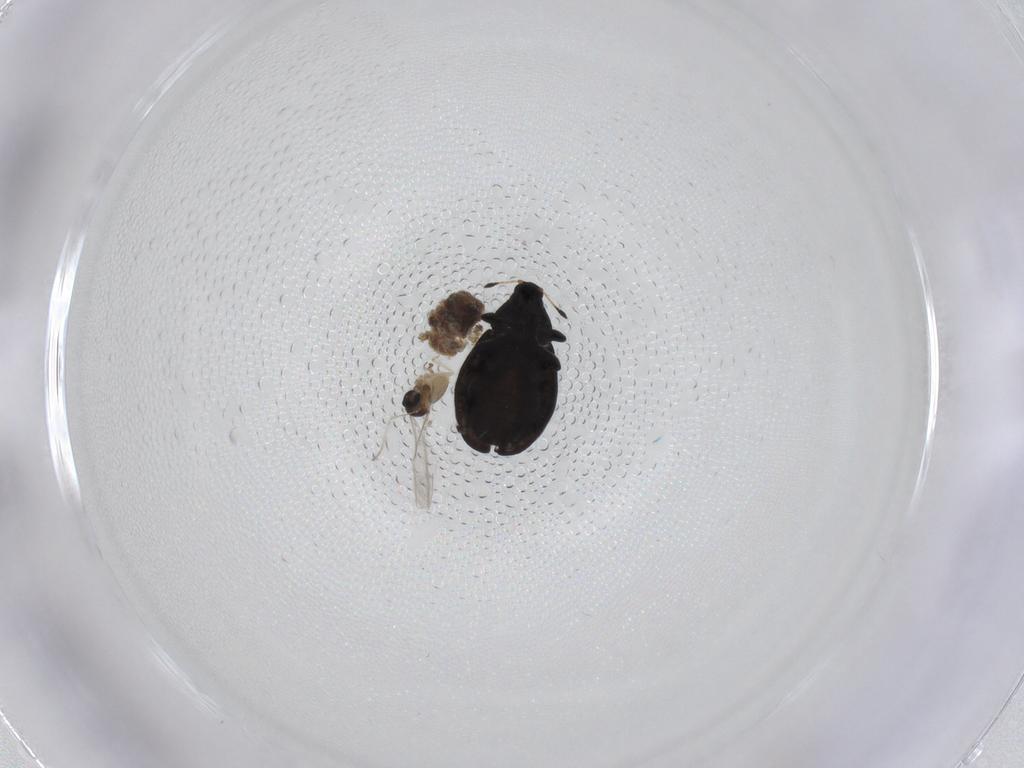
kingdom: Animalia
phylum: Arthropoda
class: Insecta
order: Coleoptera
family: Curculionidae
